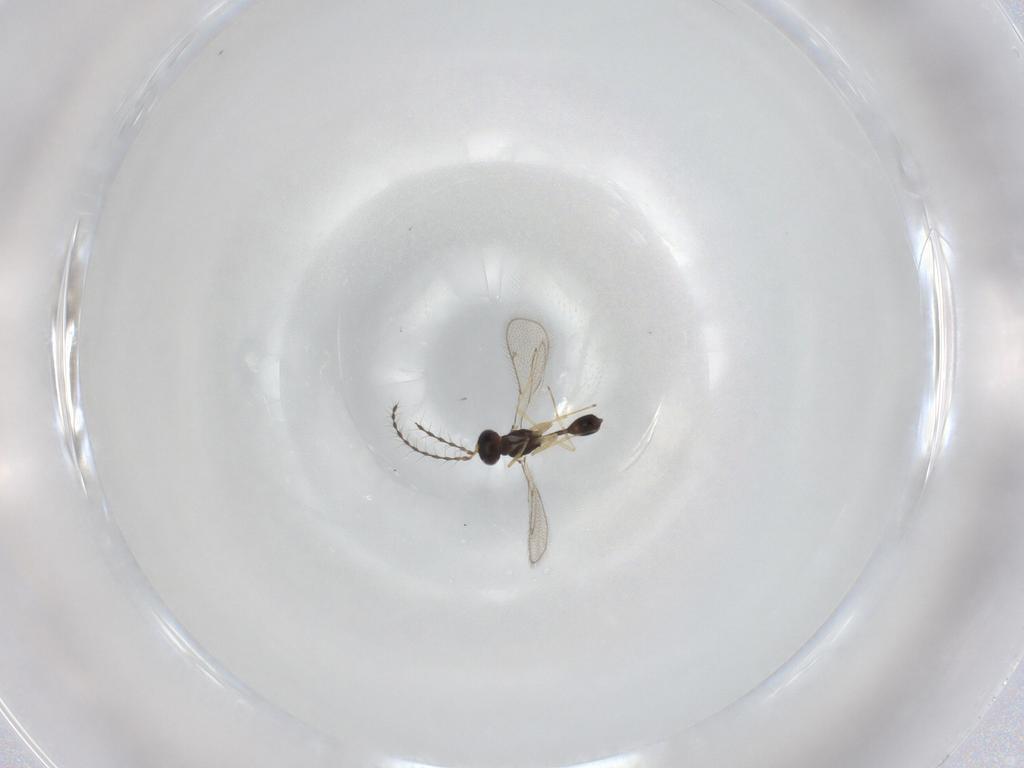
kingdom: Animalia
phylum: Arthropoda
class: Insecta
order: Hymenoptera
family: Pteromalidae
